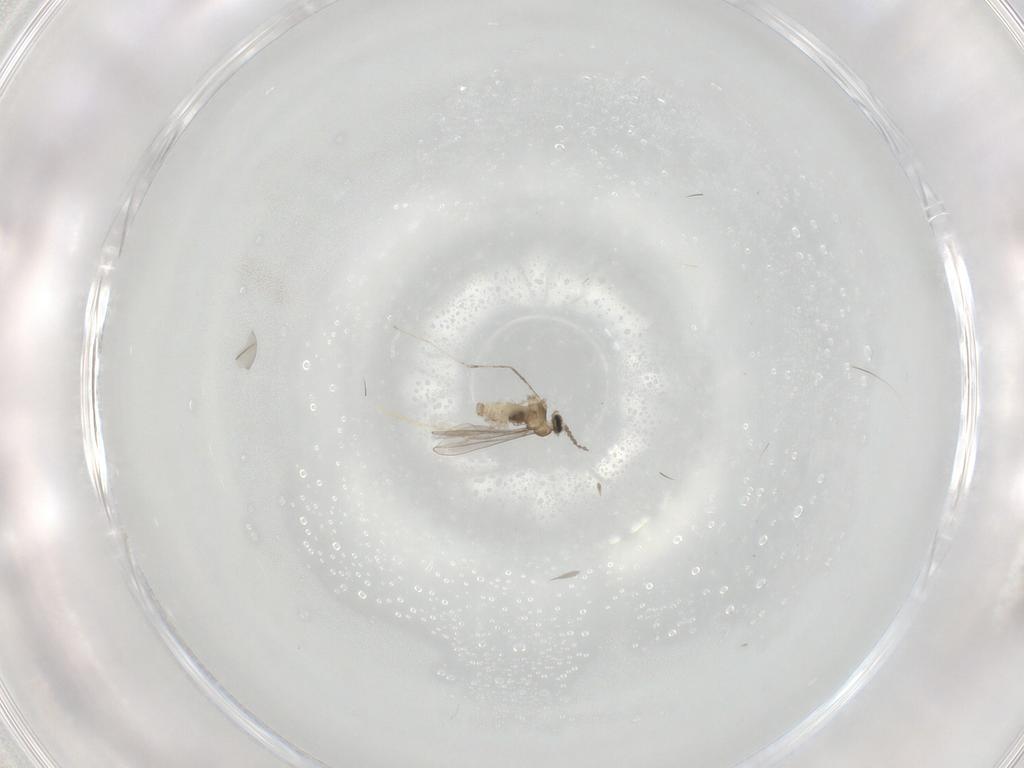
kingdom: Animalia
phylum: Arthropoda
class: Insecta
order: Diptera
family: Cecidomyiidae
